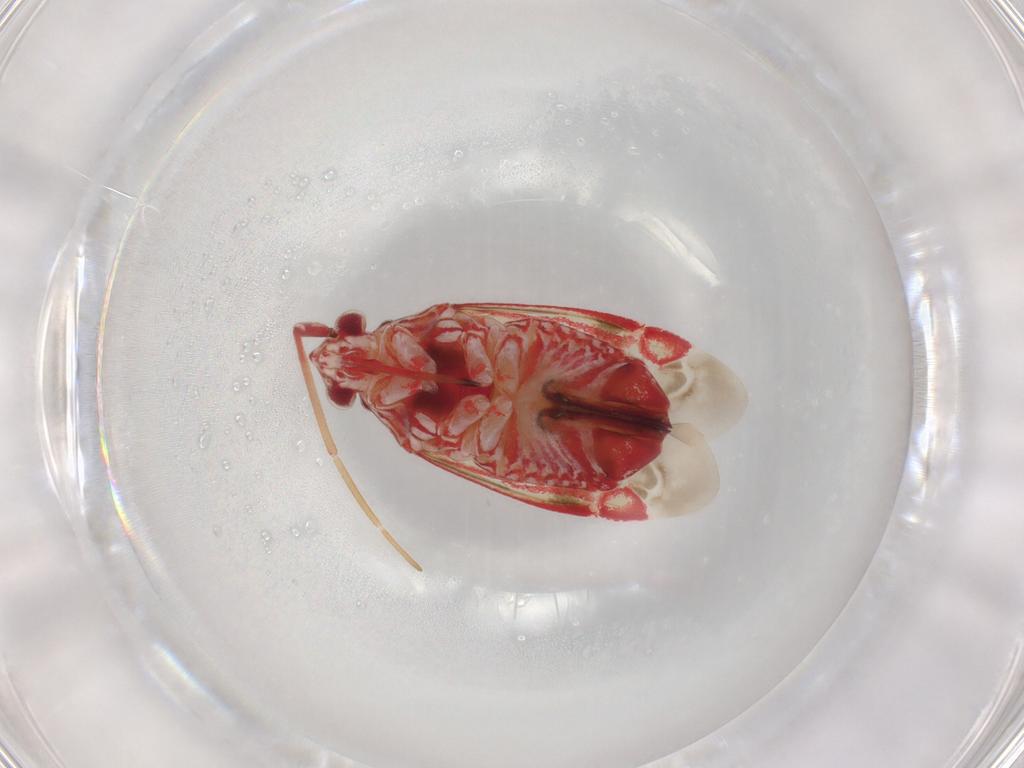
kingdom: Animalia
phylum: Arthropoda
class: Insecta
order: Hemiptera
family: Miridae
